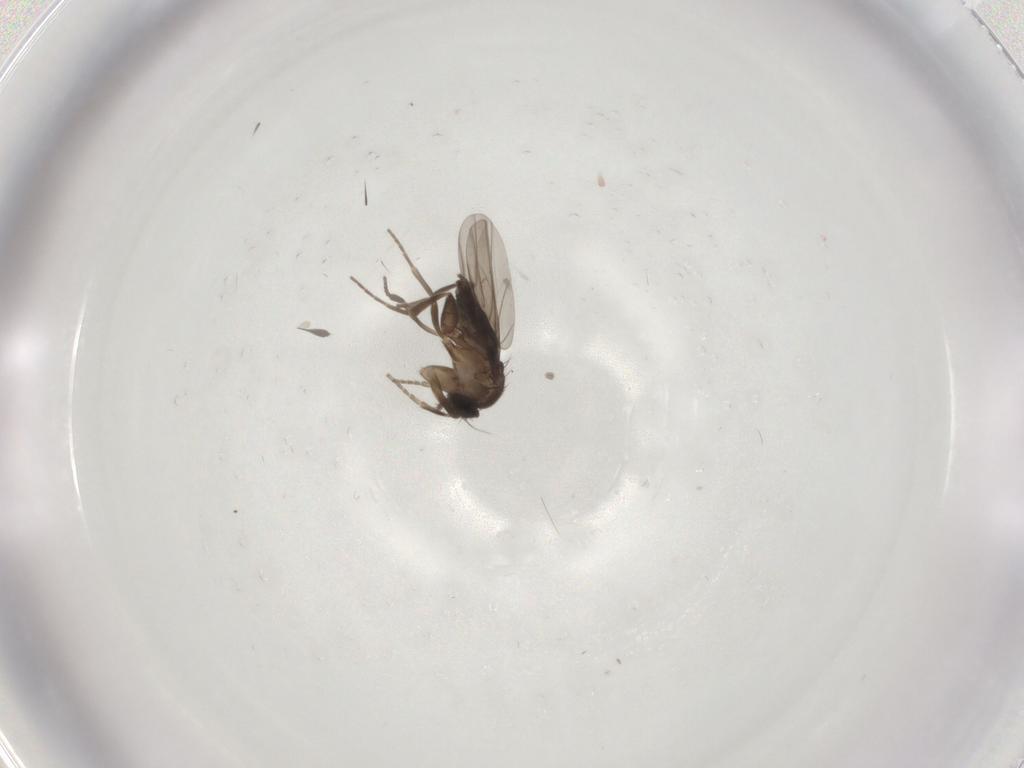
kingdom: Animalia
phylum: Arthropoda
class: Insecta
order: Diptera
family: Phoridae
